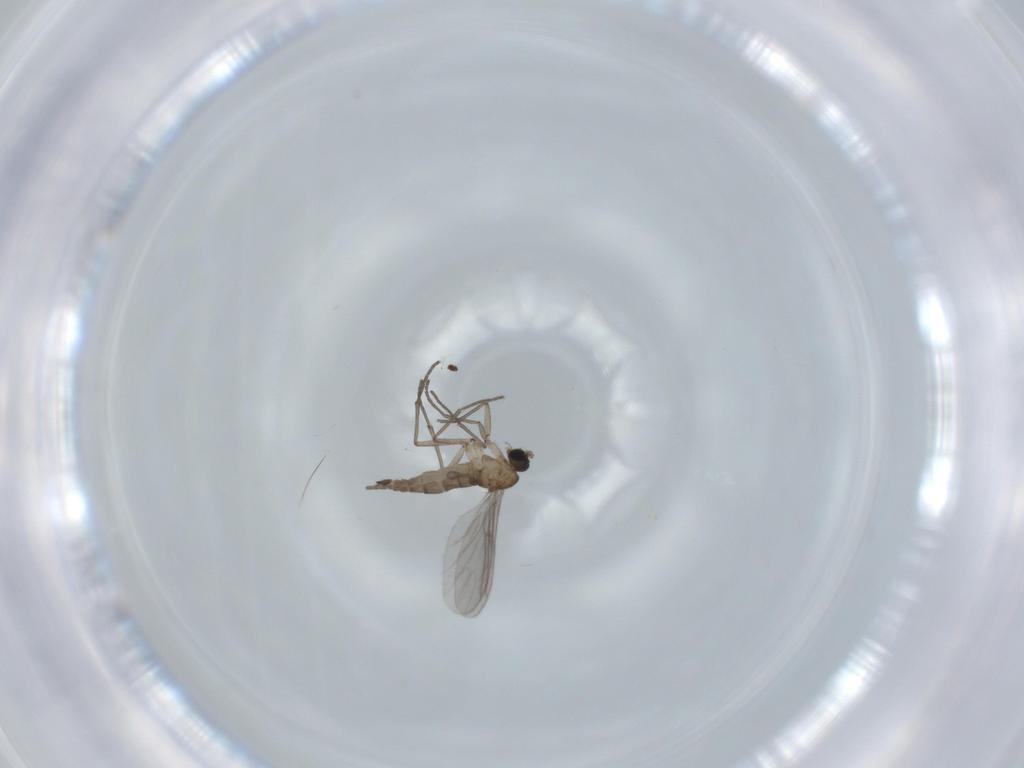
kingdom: Animalia
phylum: Arthropoda
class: Insecta
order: Diptera
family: Sciaridae
